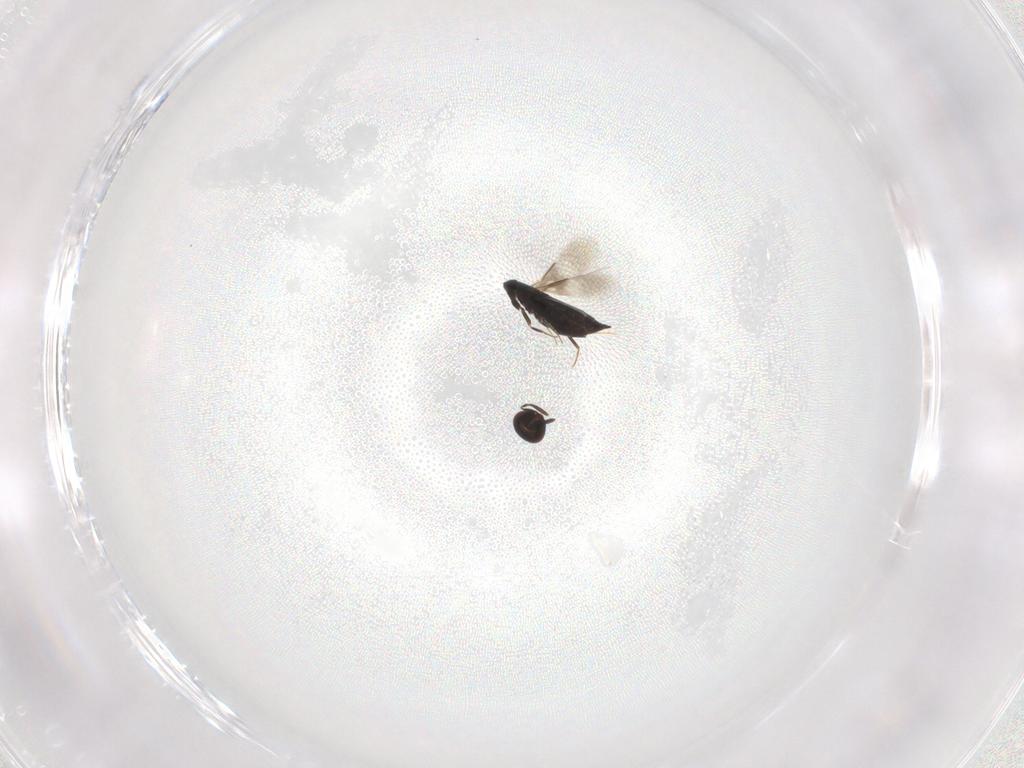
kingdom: Animalia
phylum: Arthropoda
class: Insecta
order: Hymenoptera
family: Signiphoridae
